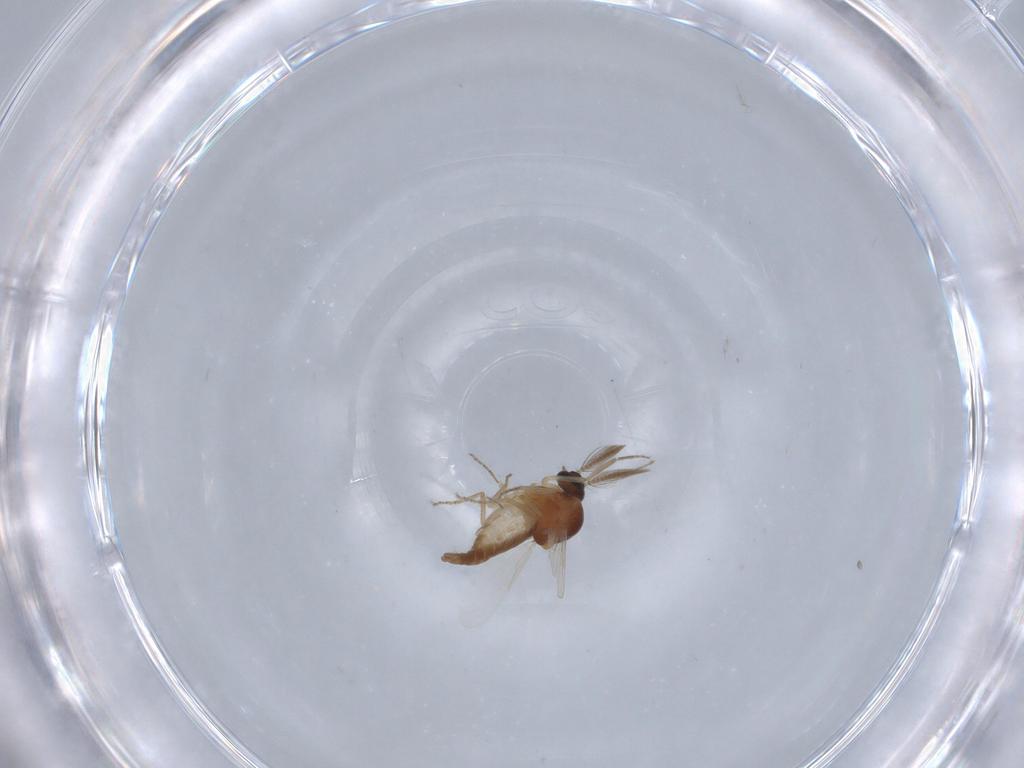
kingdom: Animalia
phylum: Arthropoda
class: Insecta
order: Diptera
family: Ceratopogonidae
